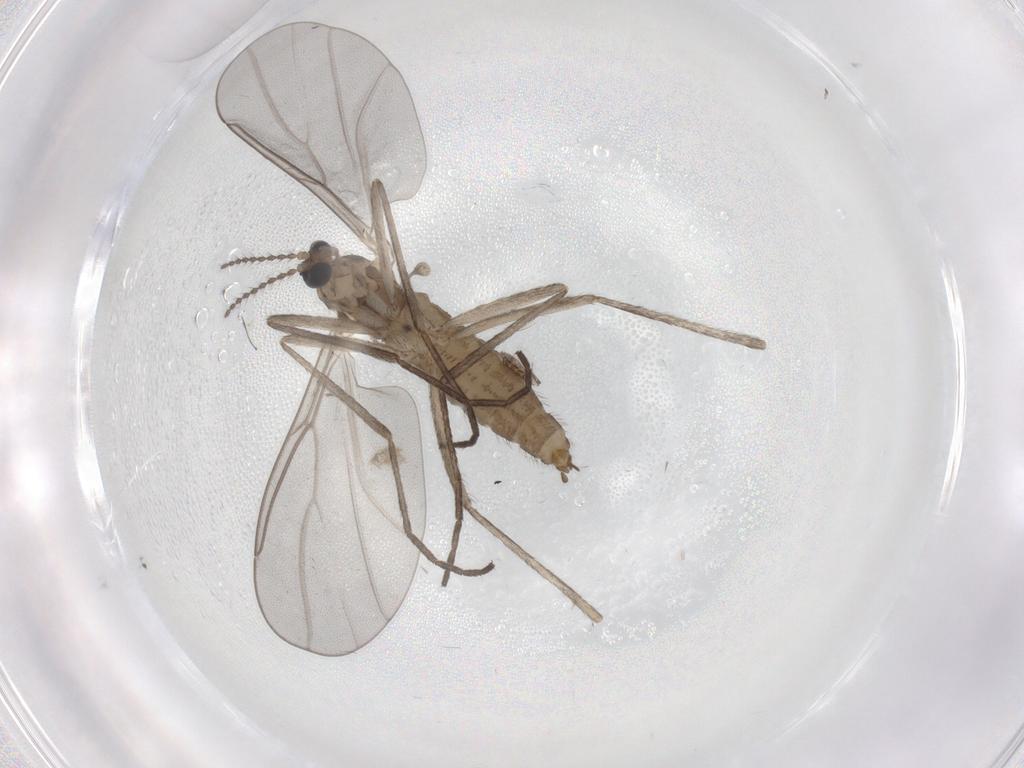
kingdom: Animalia
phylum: Arthropoda
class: Insecta
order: Diptera
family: Cecidomyiidae
